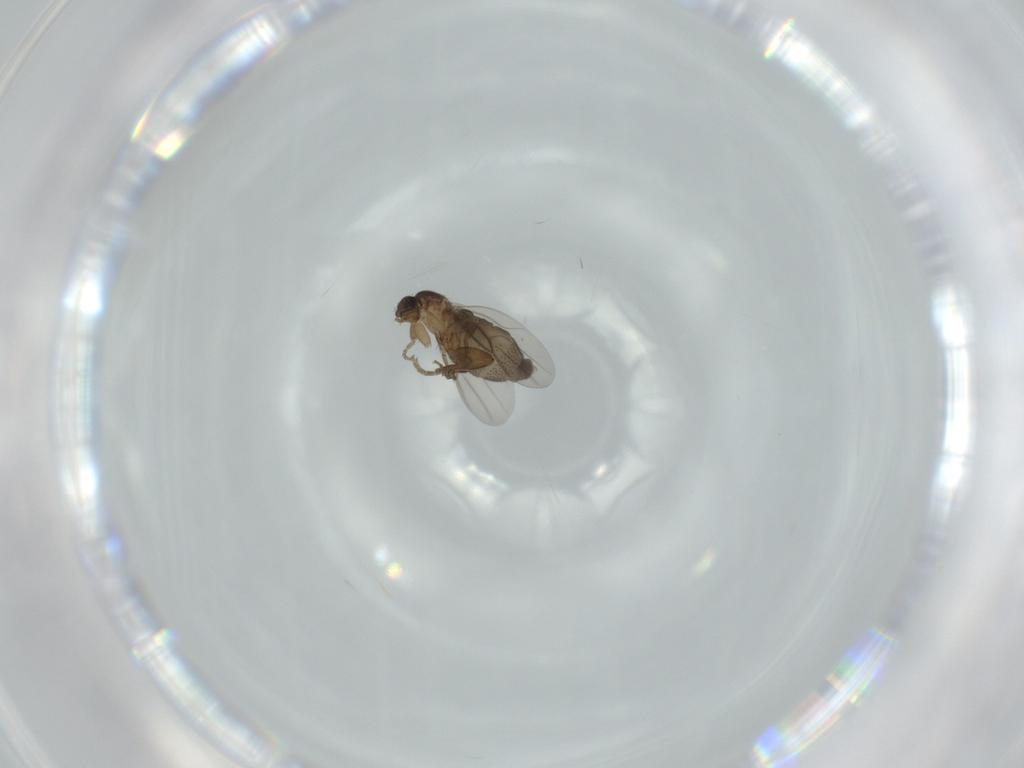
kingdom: Animalia
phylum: Arthropoda
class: Insecta
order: Diptera
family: Phoridae
